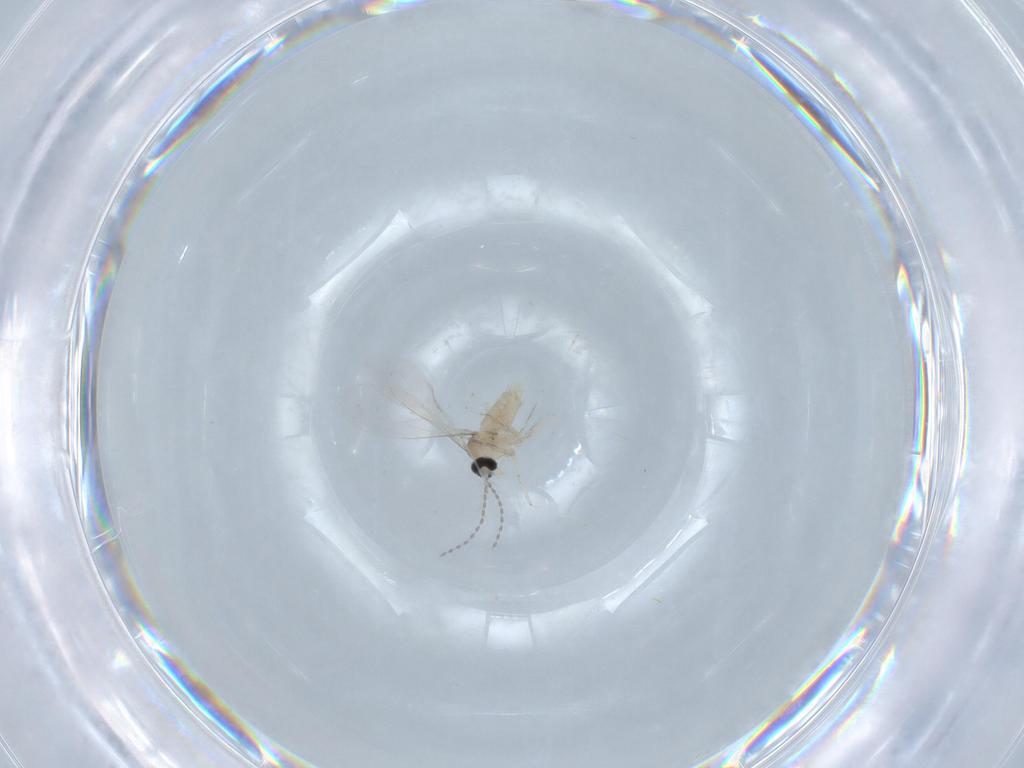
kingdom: Animalia
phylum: Arthropoda
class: Insecta
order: Diptera
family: Cecidomyiidae
